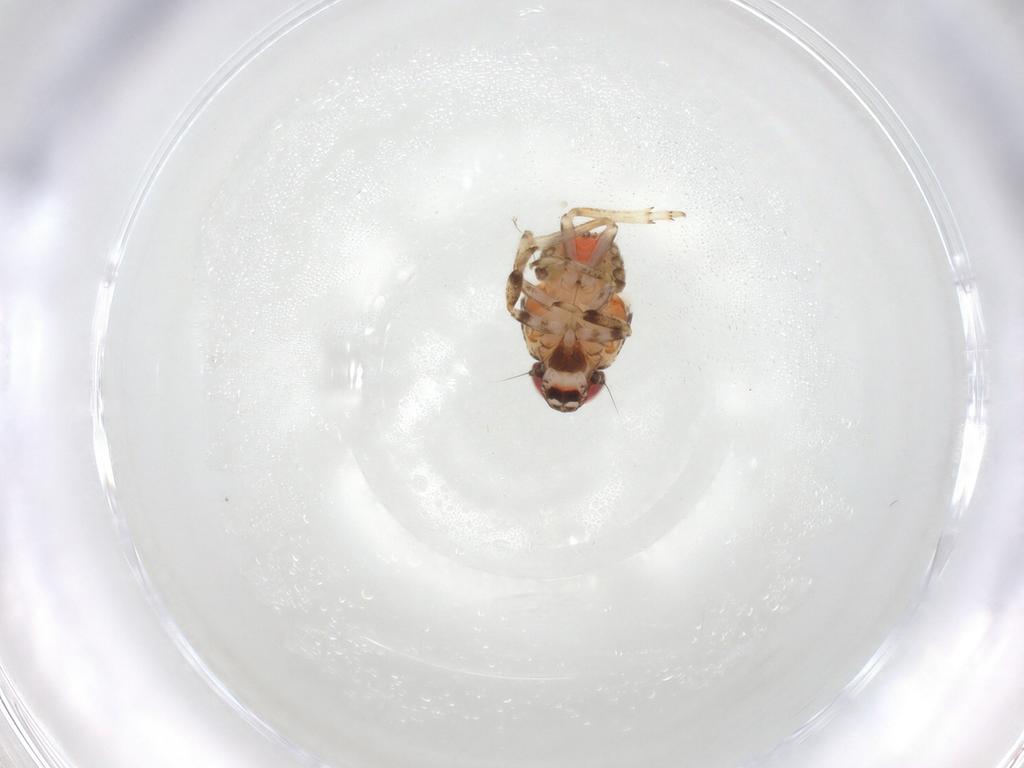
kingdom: Animalia
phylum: Arthropoda
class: Insecta
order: Hemiptera
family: Issidae
